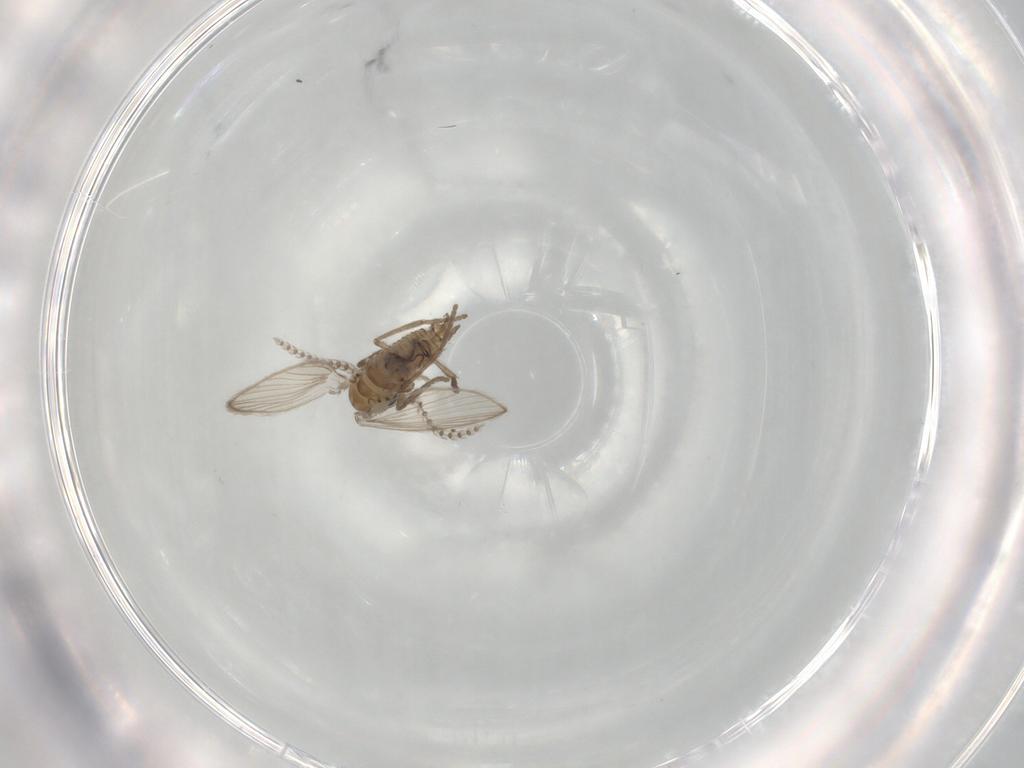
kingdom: Animalia
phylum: Arthropoda
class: Insecta
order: Diptera
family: Psychodidae
